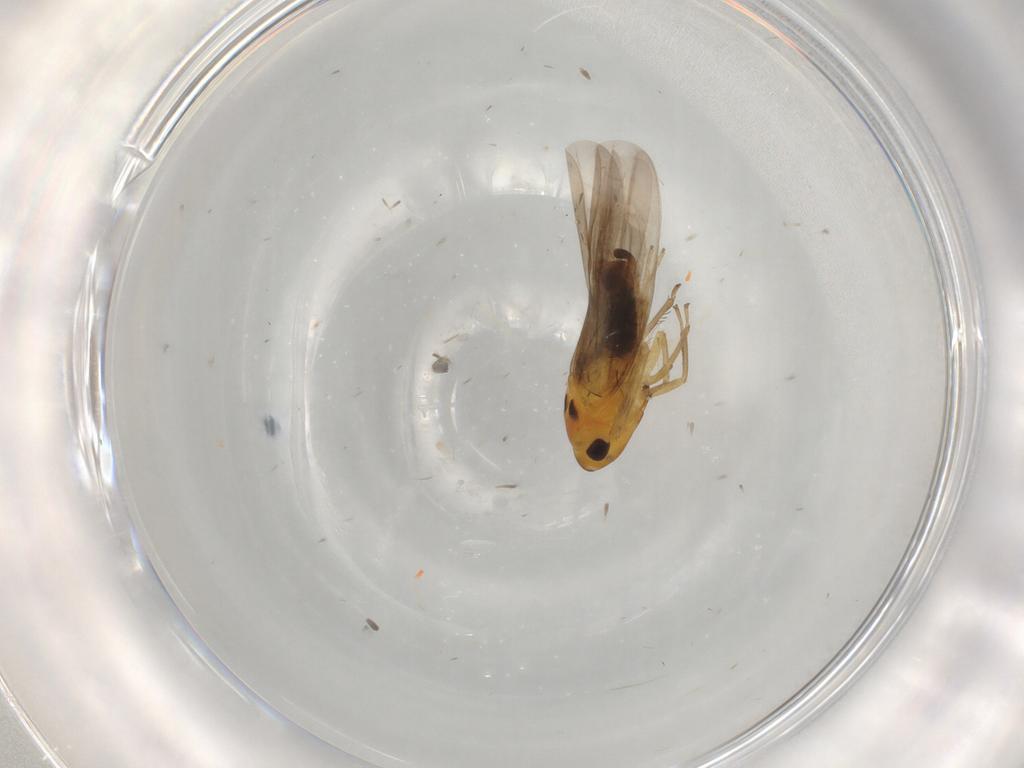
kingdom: Animalia
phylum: Arthropoda
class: Insecta
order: Hemiptera
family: Cicadellidae
